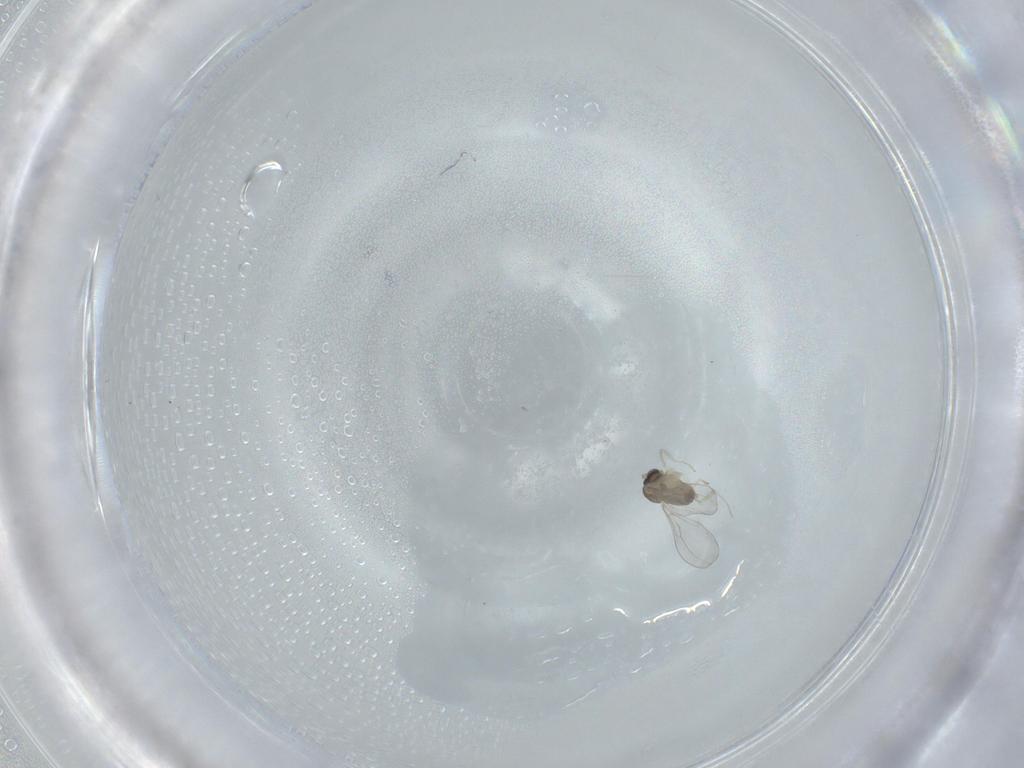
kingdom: Animalia
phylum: Arthropoda
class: Insecta
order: Diptera
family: Cecidomyiidae
